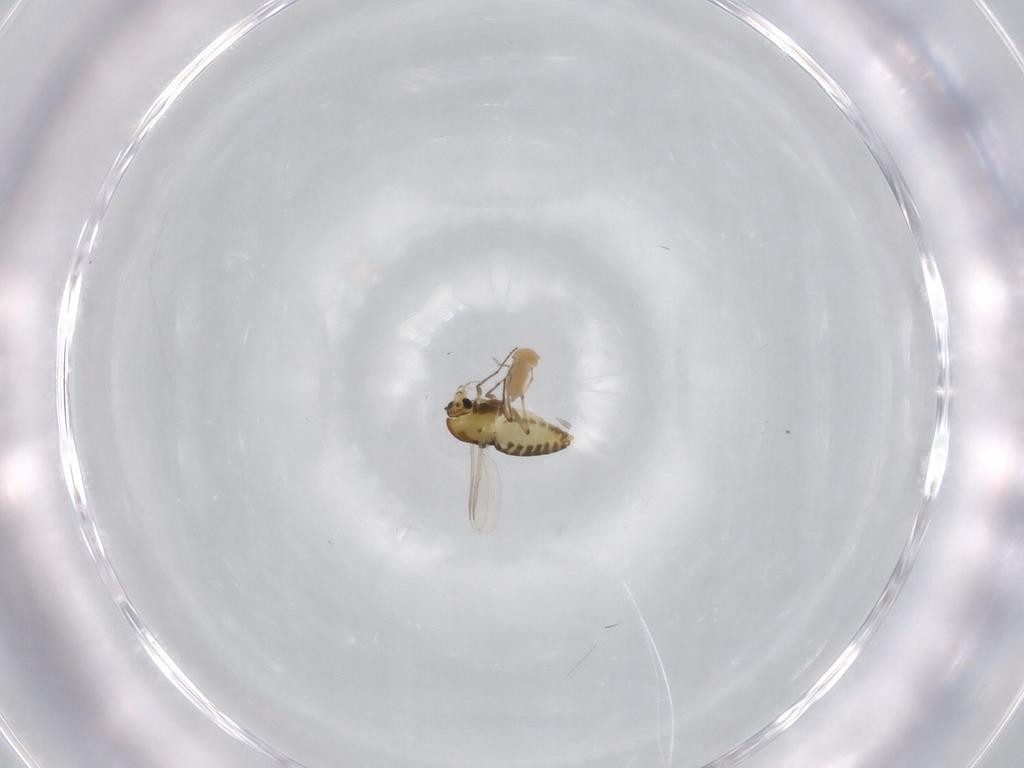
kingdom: Animalia
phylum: Arthropoda
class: Insecta
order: Diptera
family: Chironomidae
